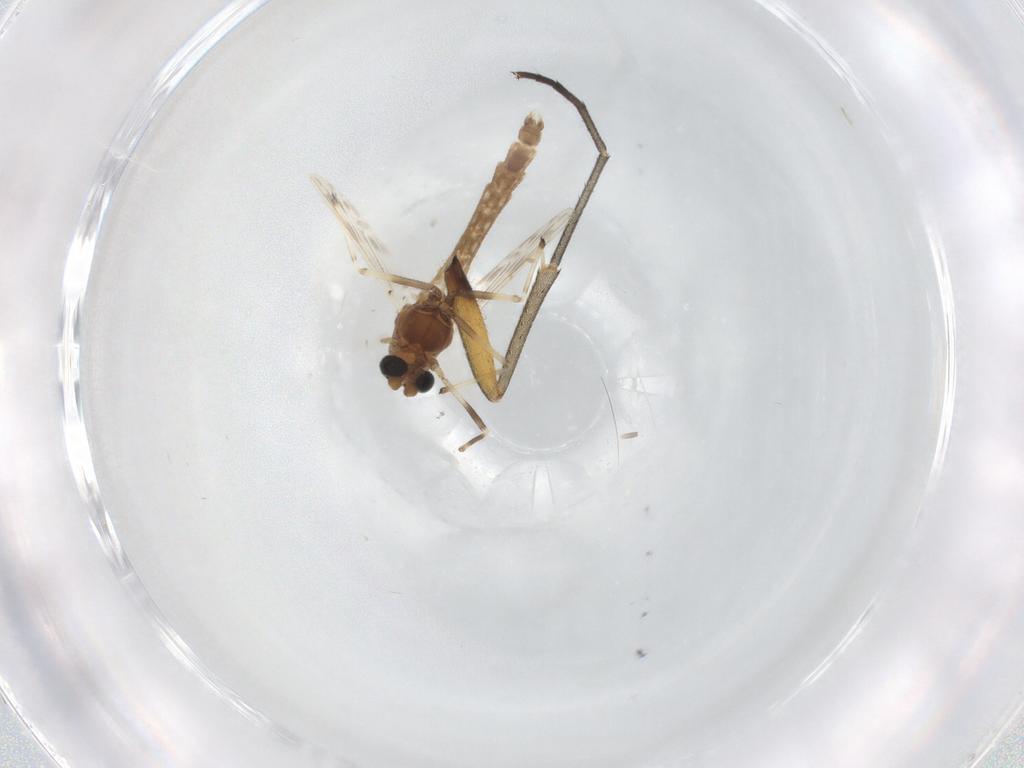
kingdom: Animalia
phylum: Arthropoda
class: Insecta
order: Diptera
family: Chironomidae
